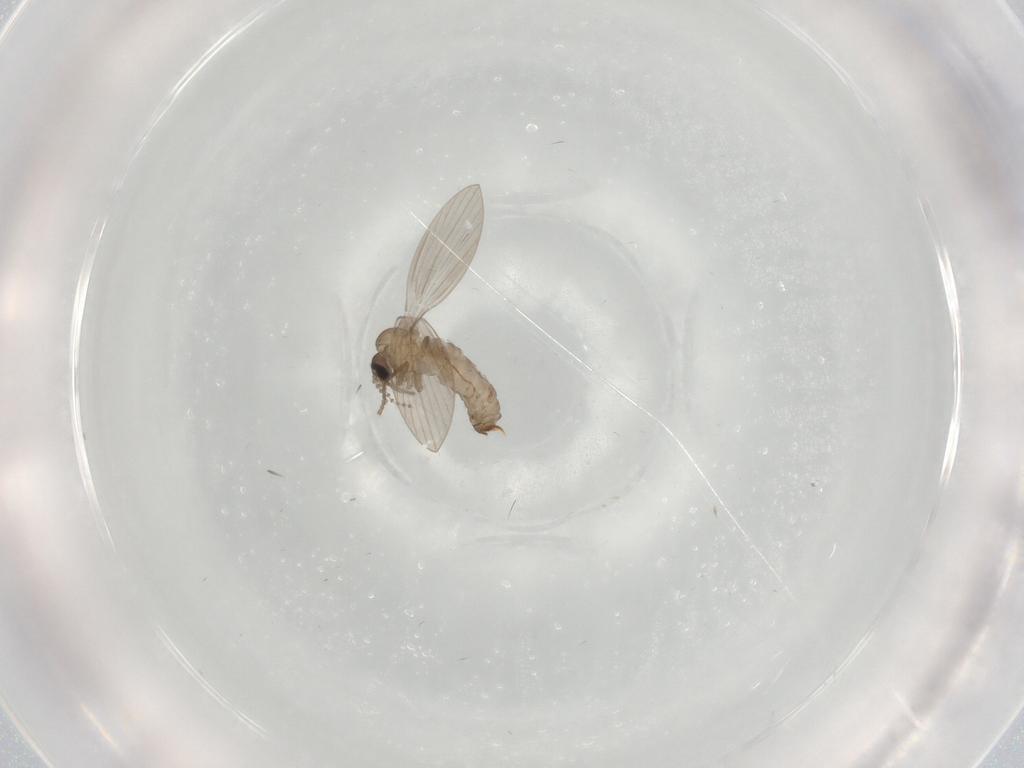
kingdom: Animalia
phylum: Arthropoda
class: Insecta
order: Diptera
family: Psychodidae
